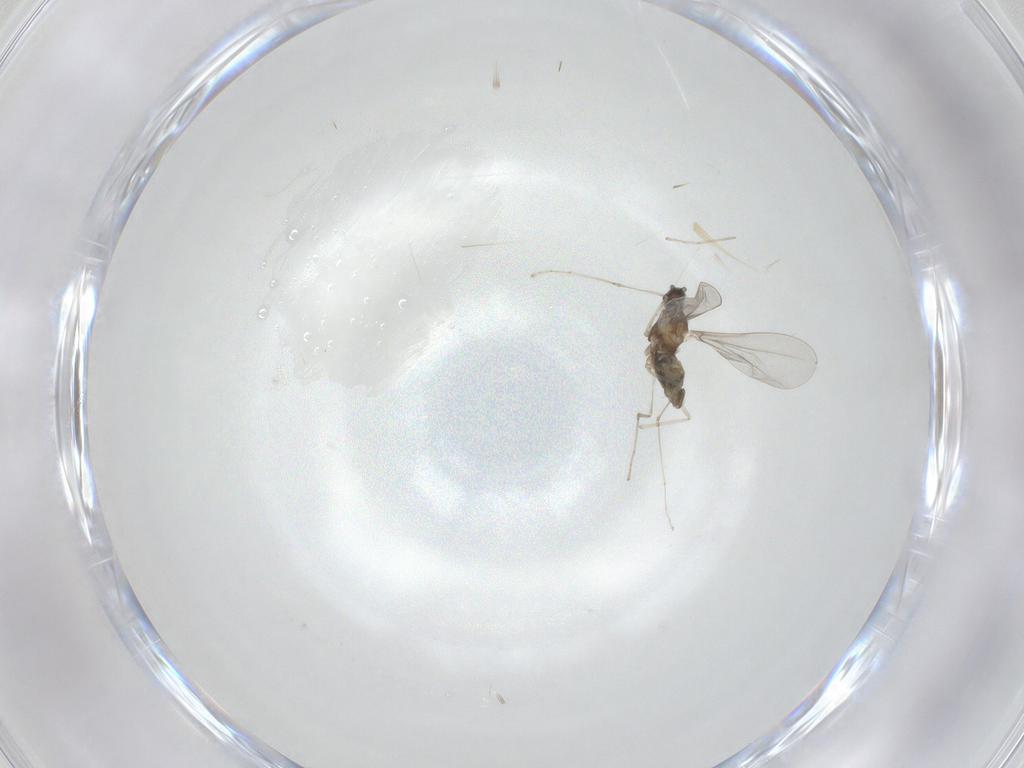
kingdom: Animalia
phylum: Arthropoda
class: Insecta
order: Diptera
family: Cecidomyiidae
